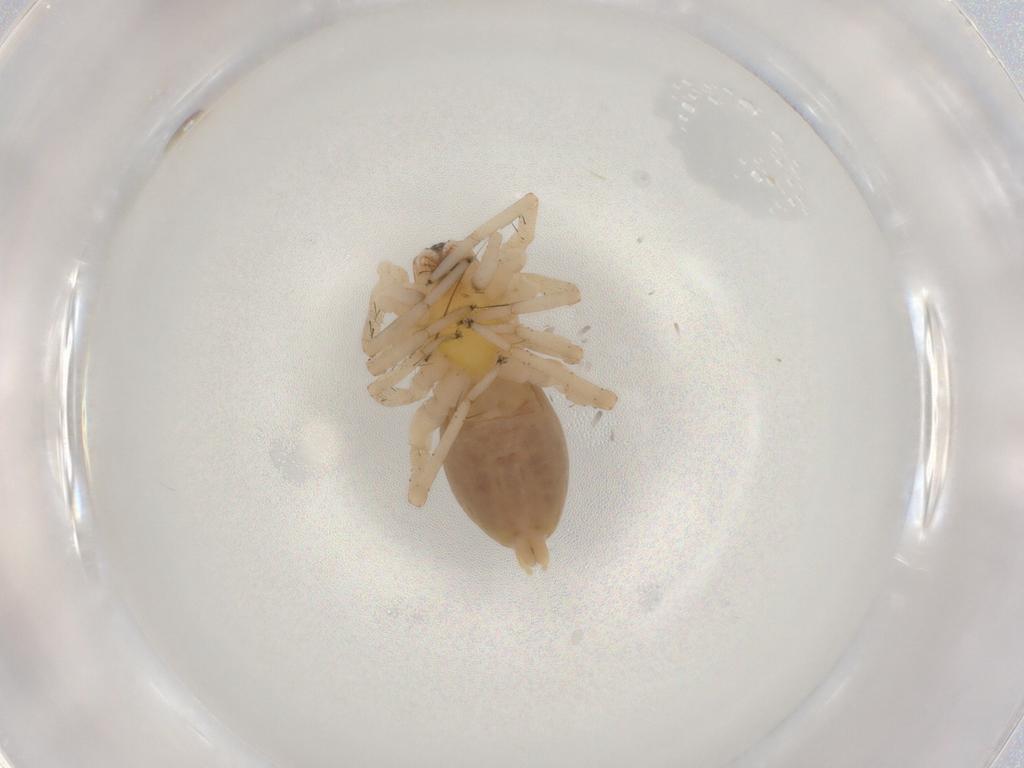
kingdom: Animalia
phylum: Arthropoda
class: Arachnida
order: Araneae
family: Anyphaenidae
